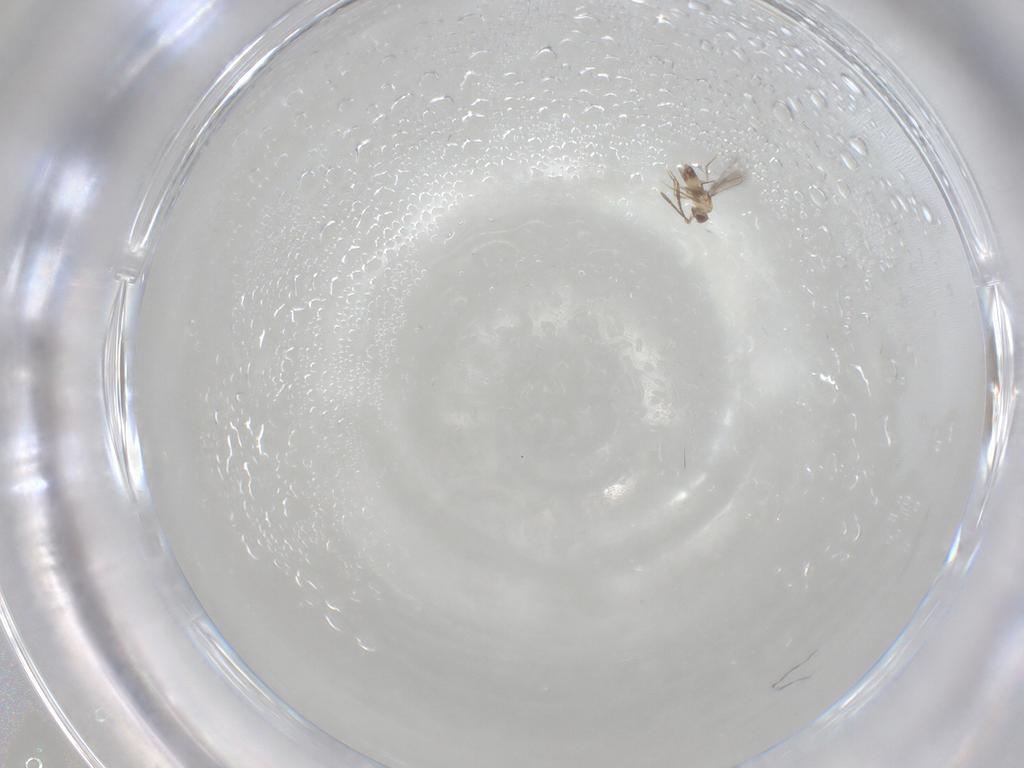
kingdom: Animalia
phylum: Arthropoda
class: Insecta
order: Hymenoptera
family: Mymaridae
